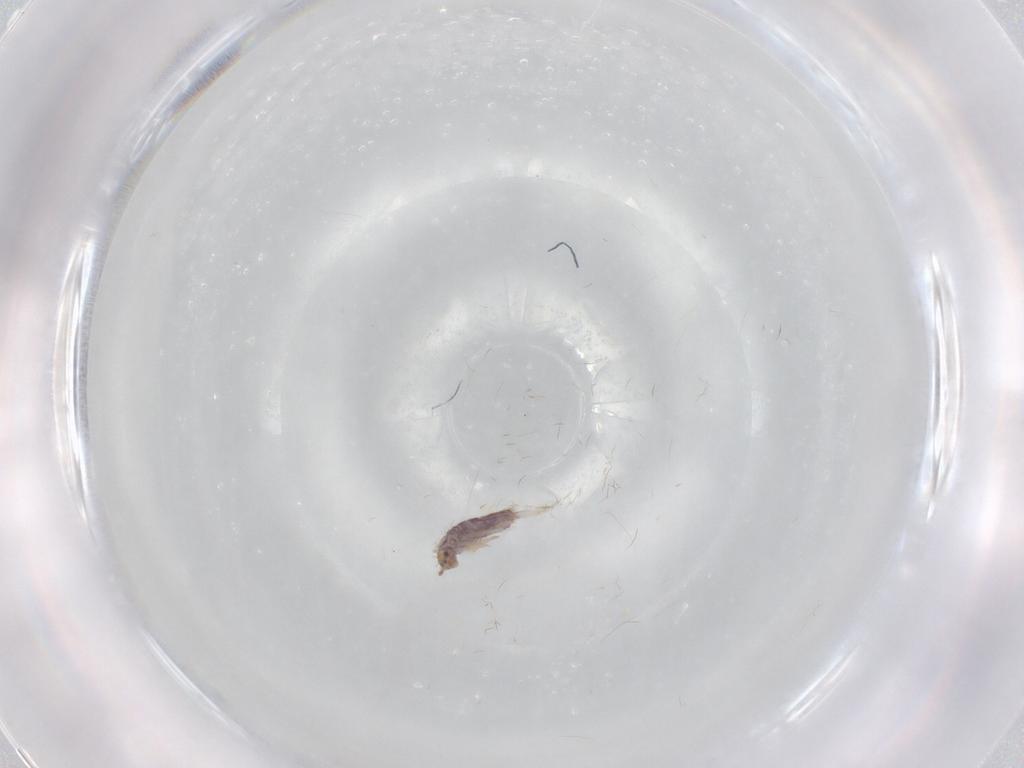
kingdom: Animalia
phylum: Arthropoda
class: Collembola
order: Entomobryomorpha
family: Entomobryidae
